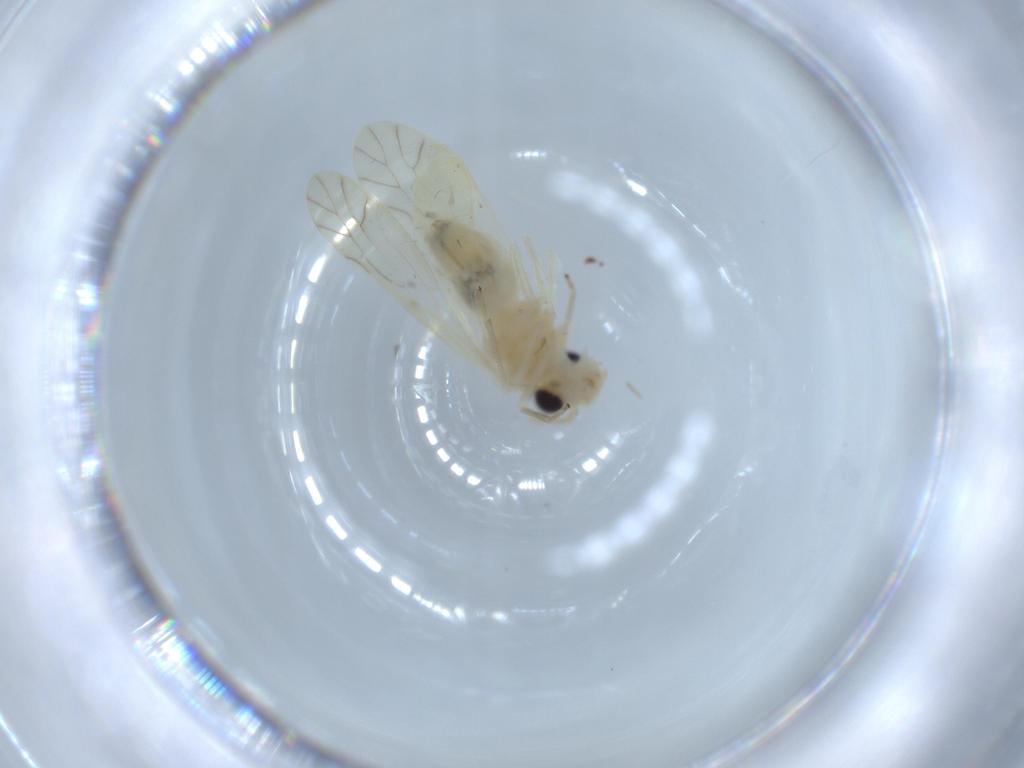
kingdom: Animalia
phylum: Arthropoda
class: Insecta
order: Psocodea
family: Caeciliusidae
